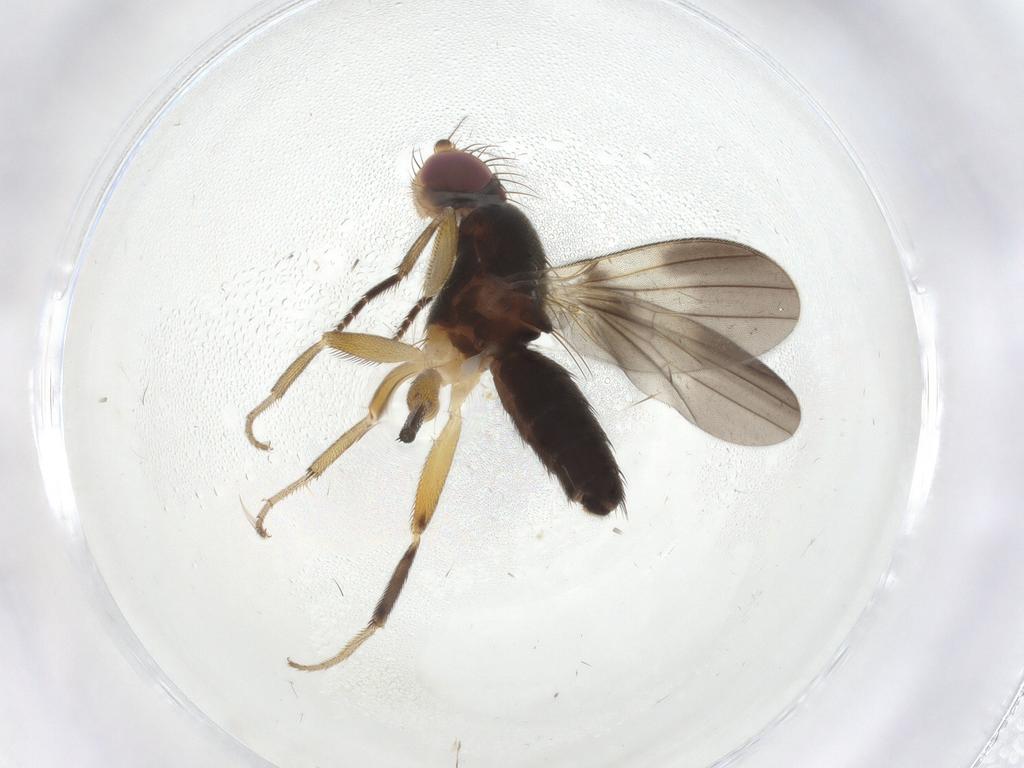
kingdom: Animalia
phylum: Arthropoda
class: Insecta
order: Diptera
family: Clusiidae
